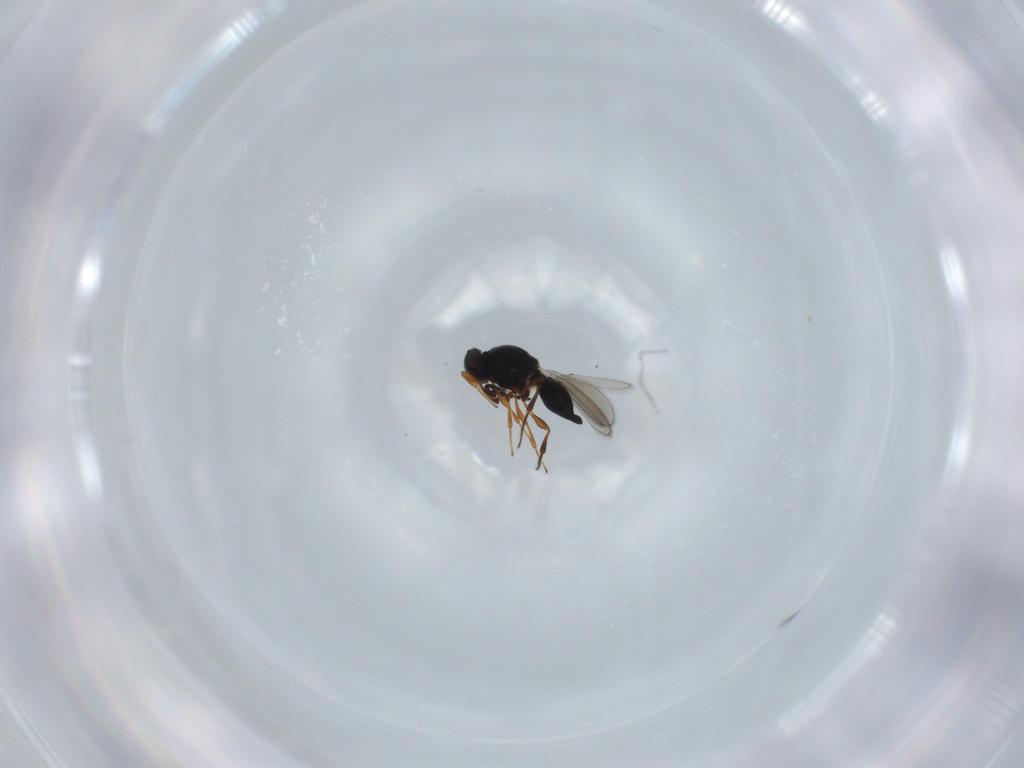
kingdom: Animalia
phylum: Arthropoda
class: Insecta
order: Hymenoptera
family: Platygastridae
